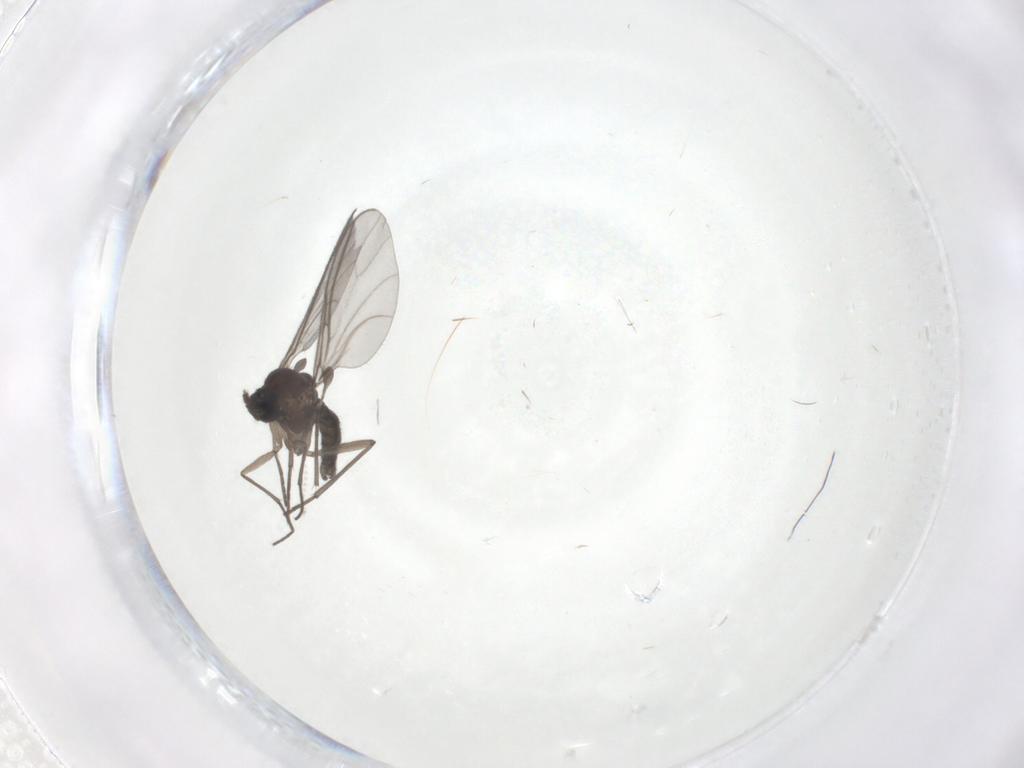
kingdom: Animalia
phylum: Arthropoda
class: Insecta
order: Diptera
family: Sciaridae
